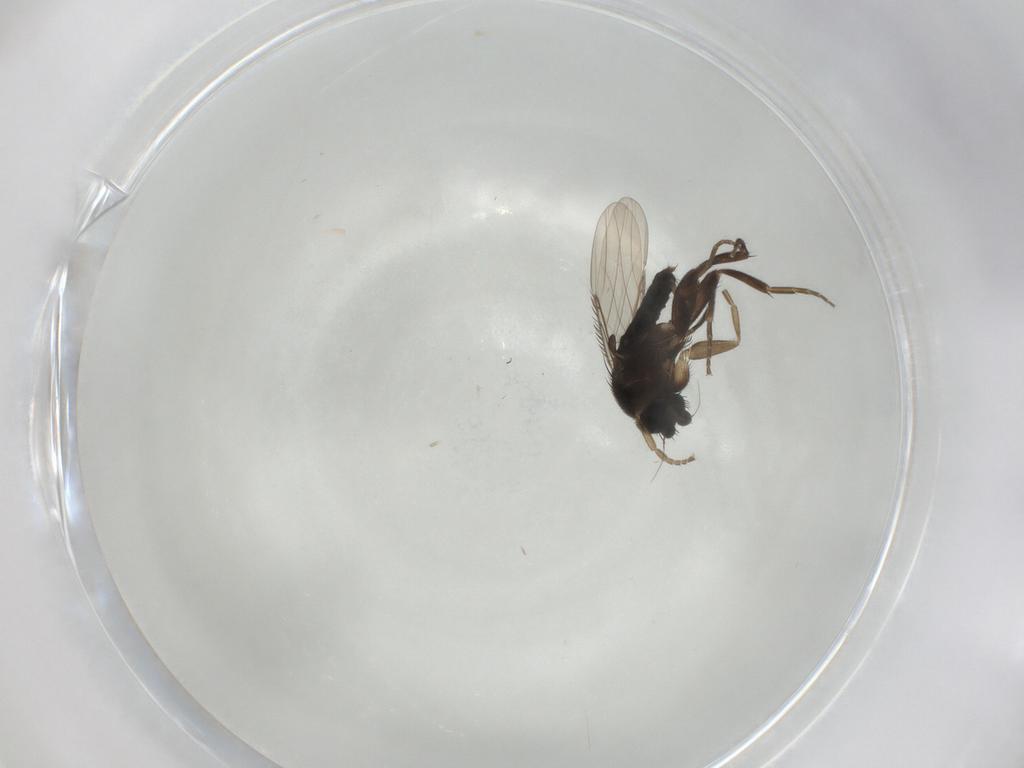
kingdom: Animalia
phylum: Arthropoda
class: Insecta
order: Diptera
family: Phoridae
